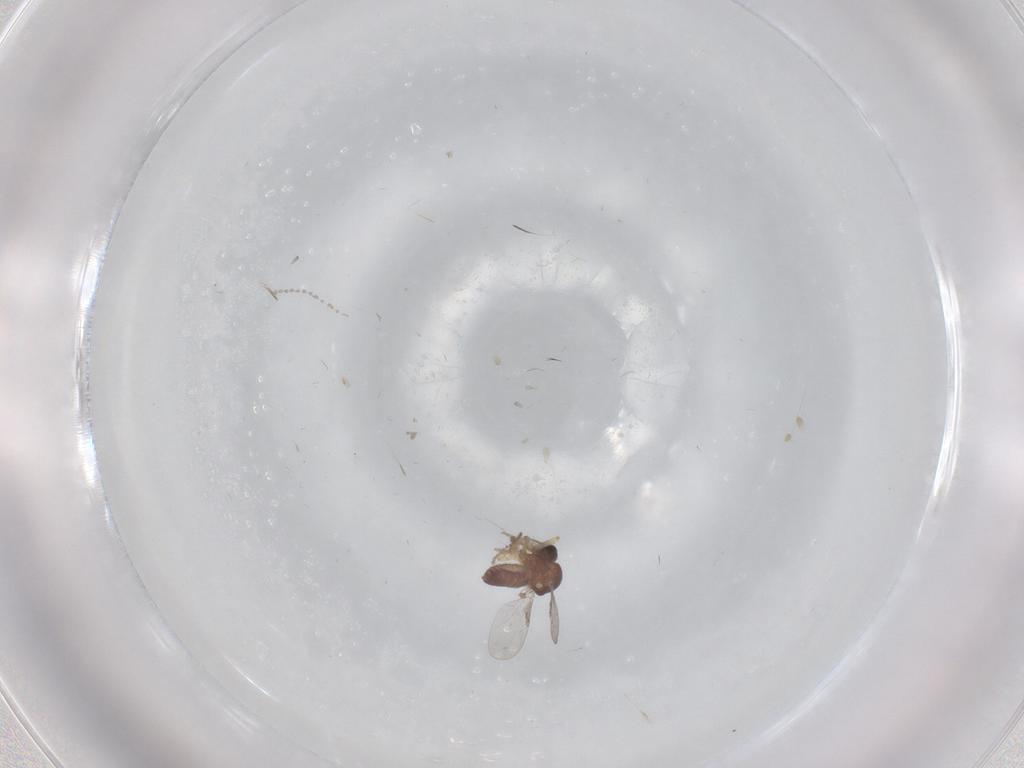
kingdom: Animalia
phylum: Arthropoda
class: Insecta
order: Diptera
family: Ceratopogonidae
